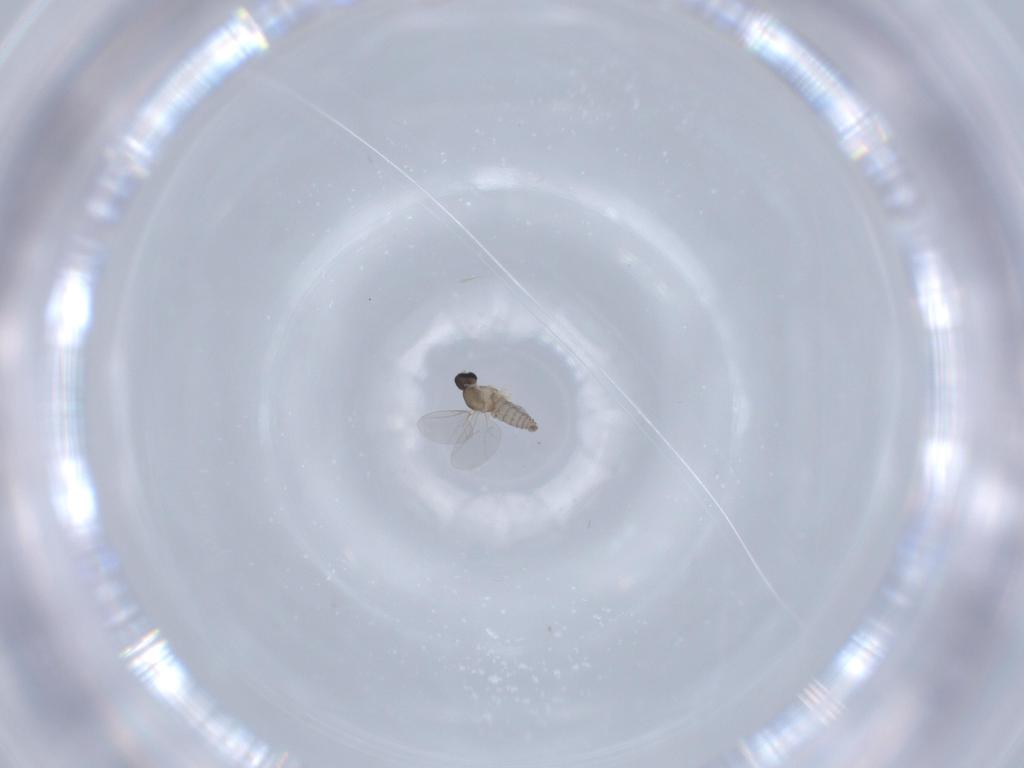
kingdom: Animalia
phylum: Arthropoda
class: Insecta
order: Diptera
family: Cecidomyiidae
